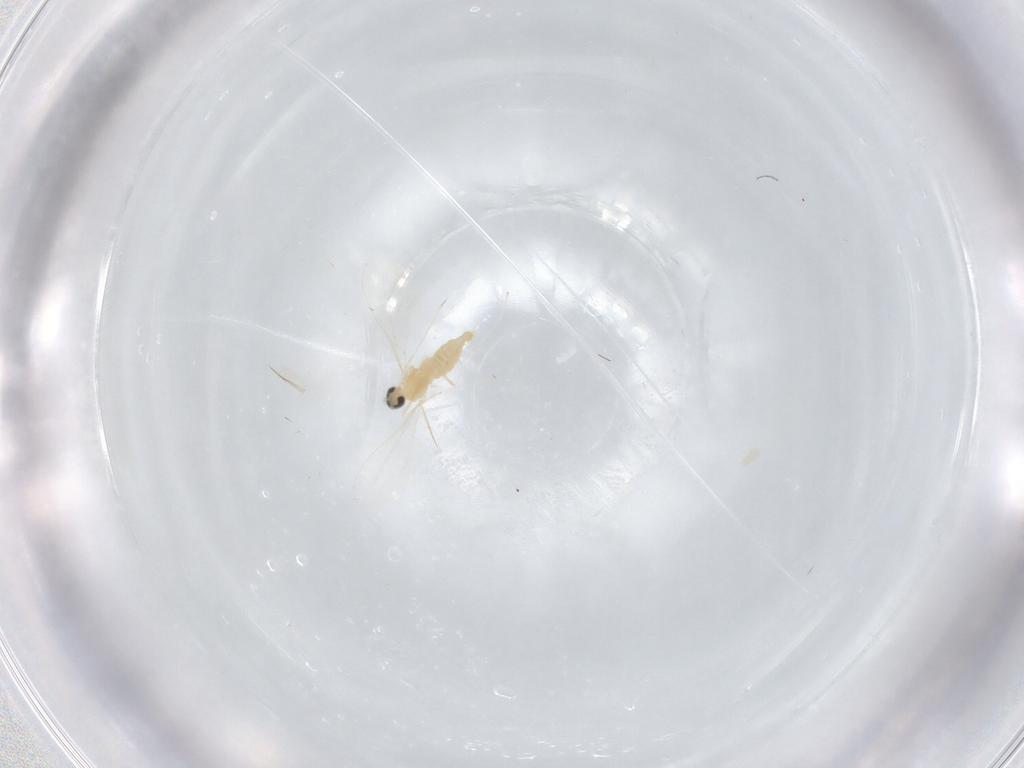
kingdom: Animalia
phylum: Arthropoda
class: Insecta
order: Diptera
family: Cecidomyiidae
